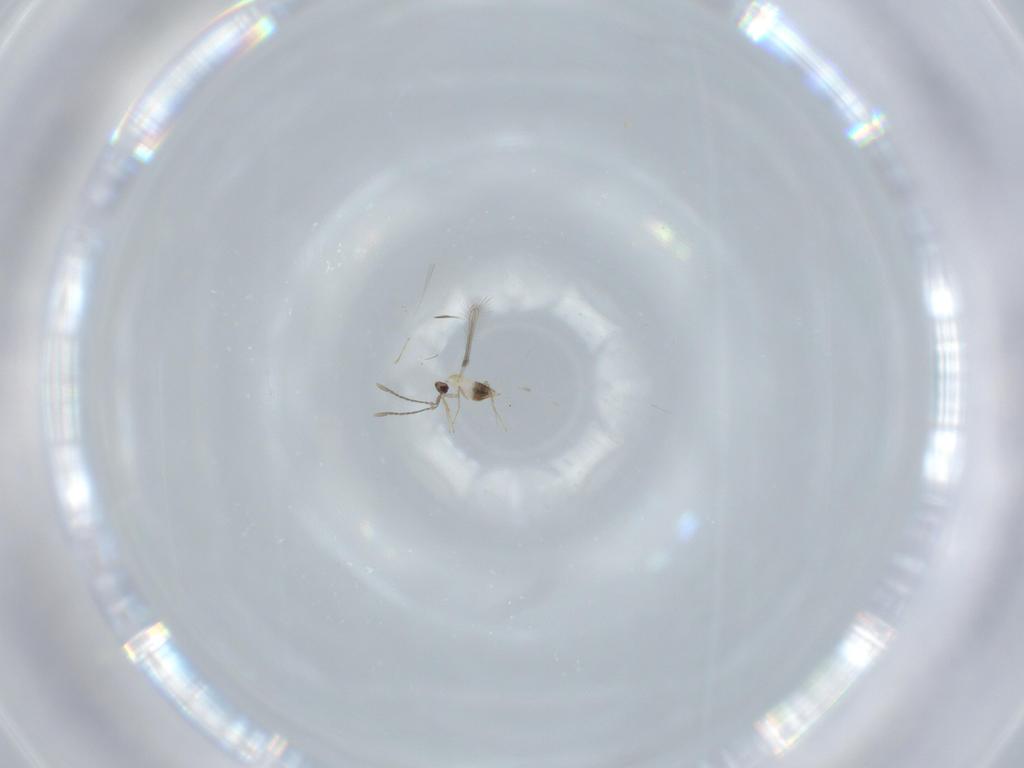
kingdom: Animalia
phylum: Arthropoda
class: Insecta
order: Hymenoptera
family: Mymaridae
